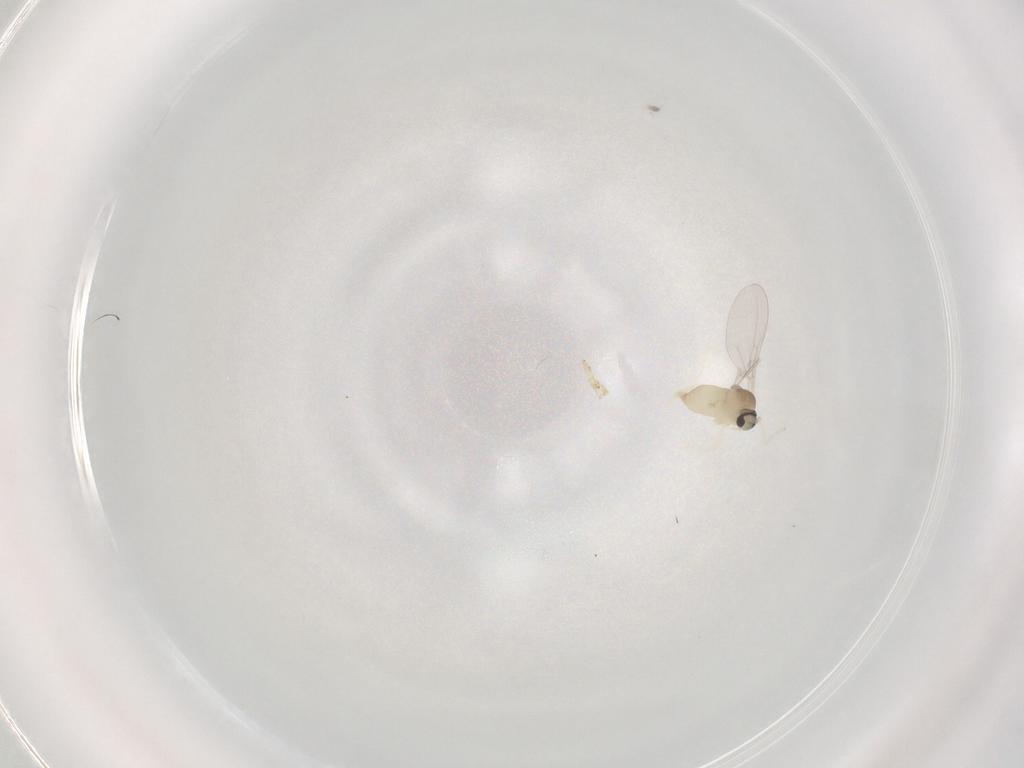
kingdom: Animalia
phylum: Arthropoda
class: Insecta
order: Diptera
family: Cecidomyiidae
